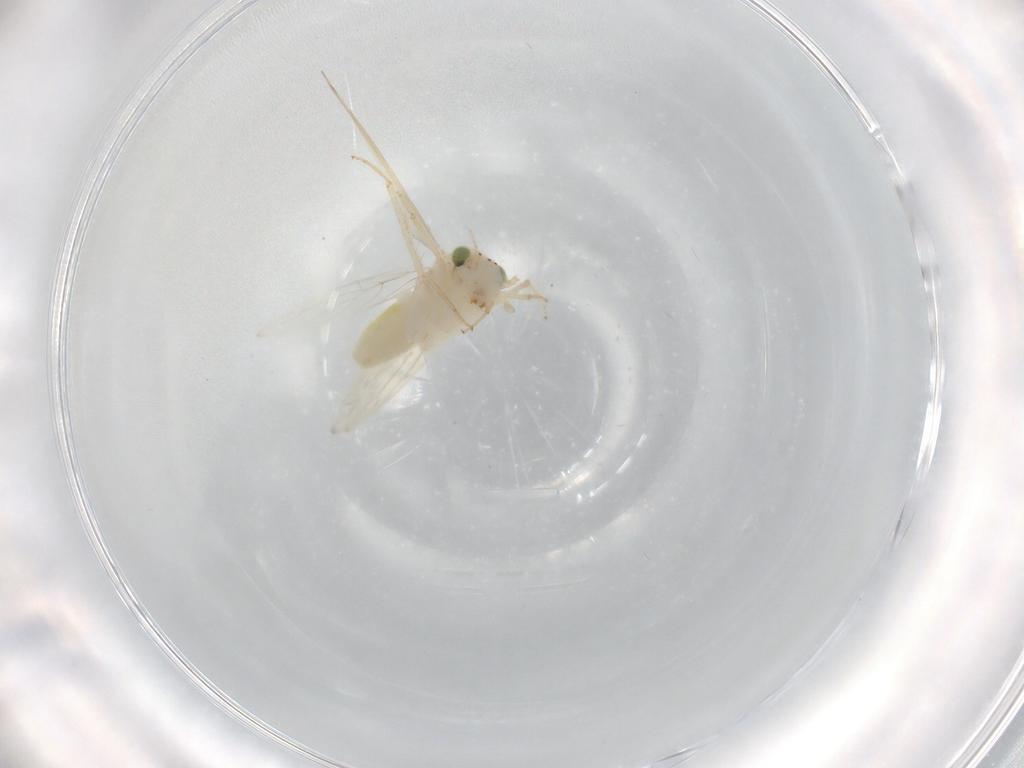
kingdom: Animalia
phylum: Arthropoda
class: Insecta
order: Psocodea
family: Lepidopsocidae
